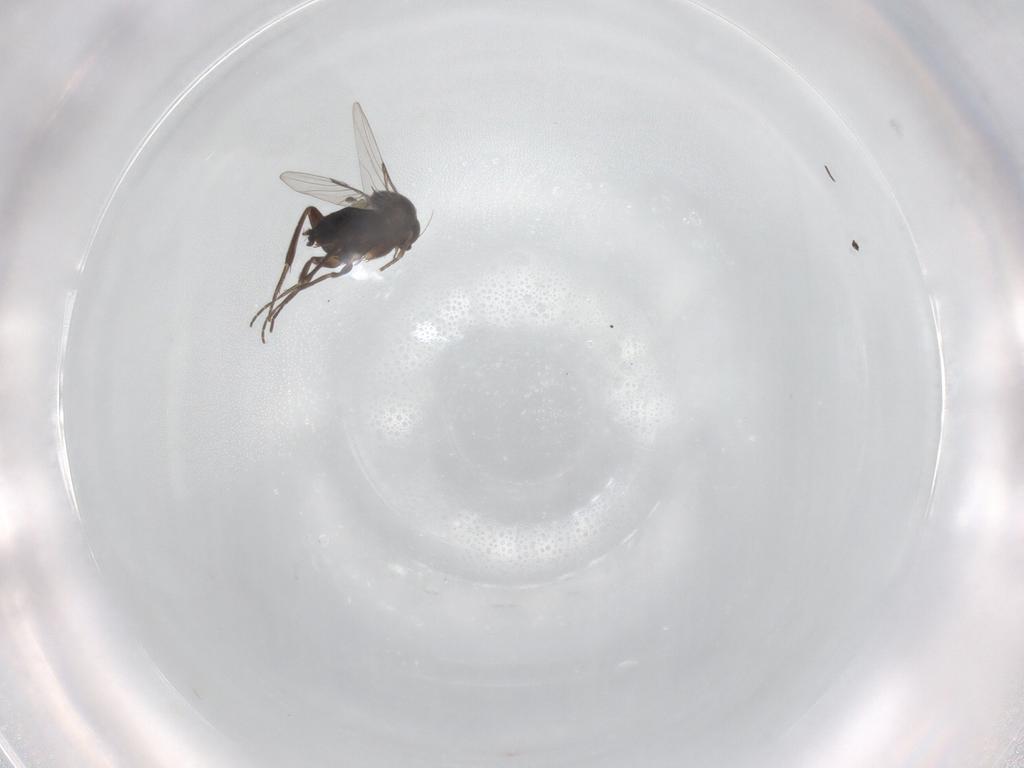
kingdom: Animalia
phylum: Arthropoda
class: Insecta
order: Diptera
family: Phoridae
